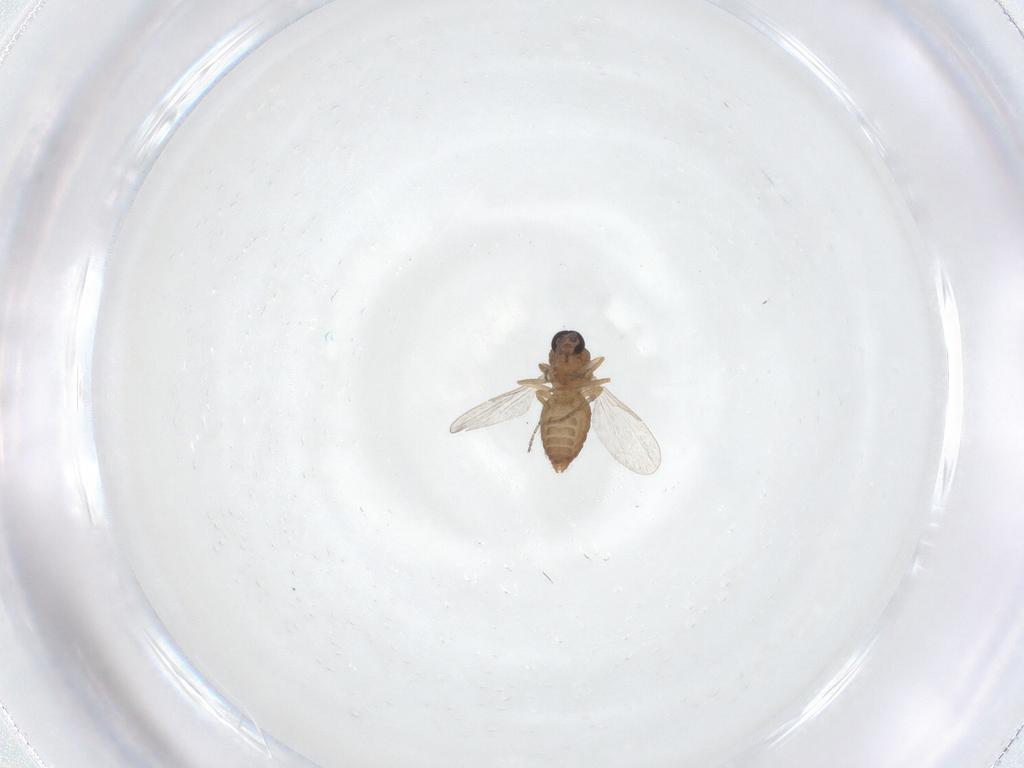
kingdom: Animalia
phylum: Arthropoda
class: Insecta
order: Diptera
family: Ceratopogonidae
